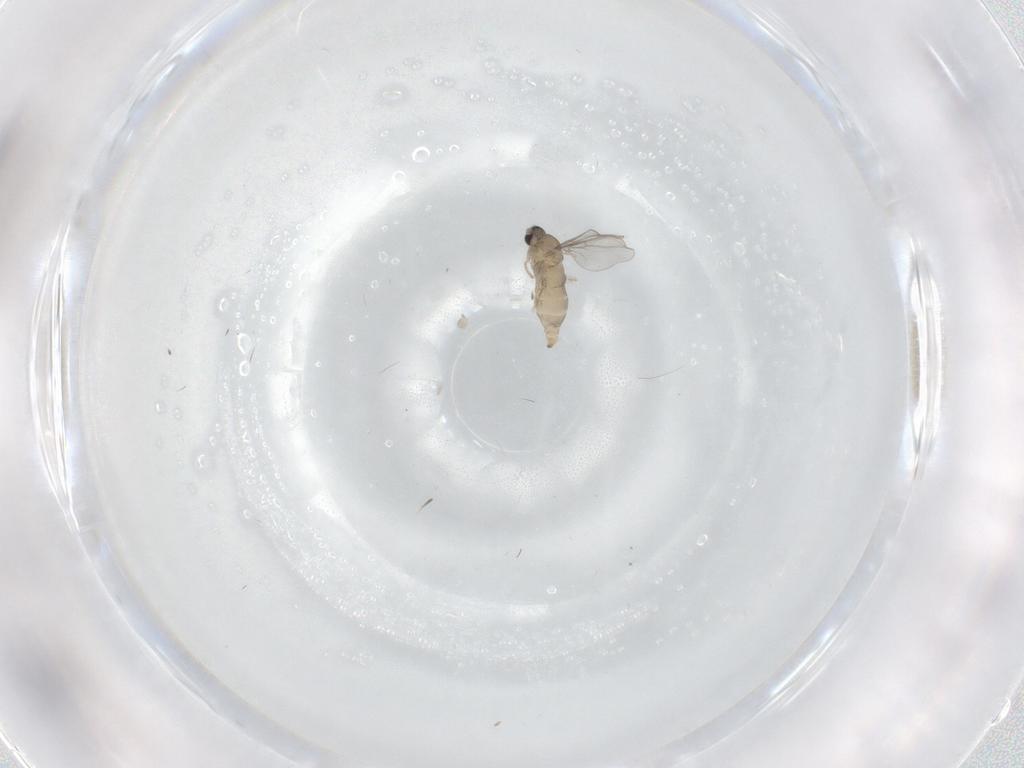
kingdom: Animalia
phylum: Arthropoda
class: Insecta
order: Diptera
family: Cecidomyiidae
